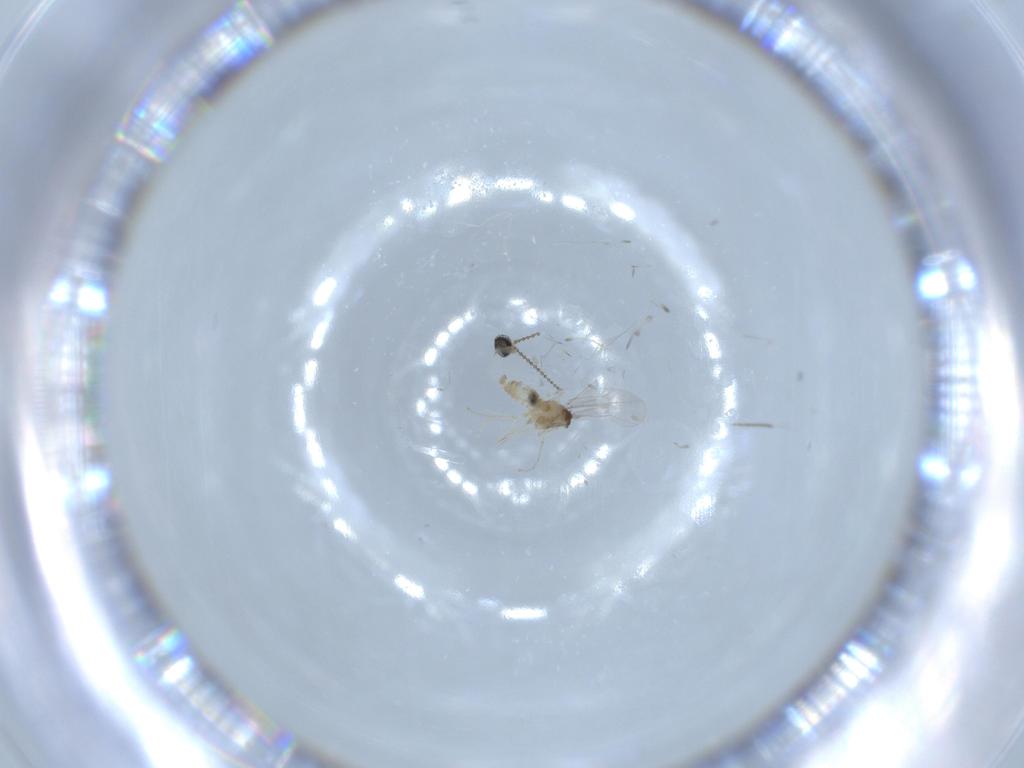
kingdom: Animalia
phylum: Arthropoda
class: Insecta
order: Diptera
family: Cecidomyiidae
